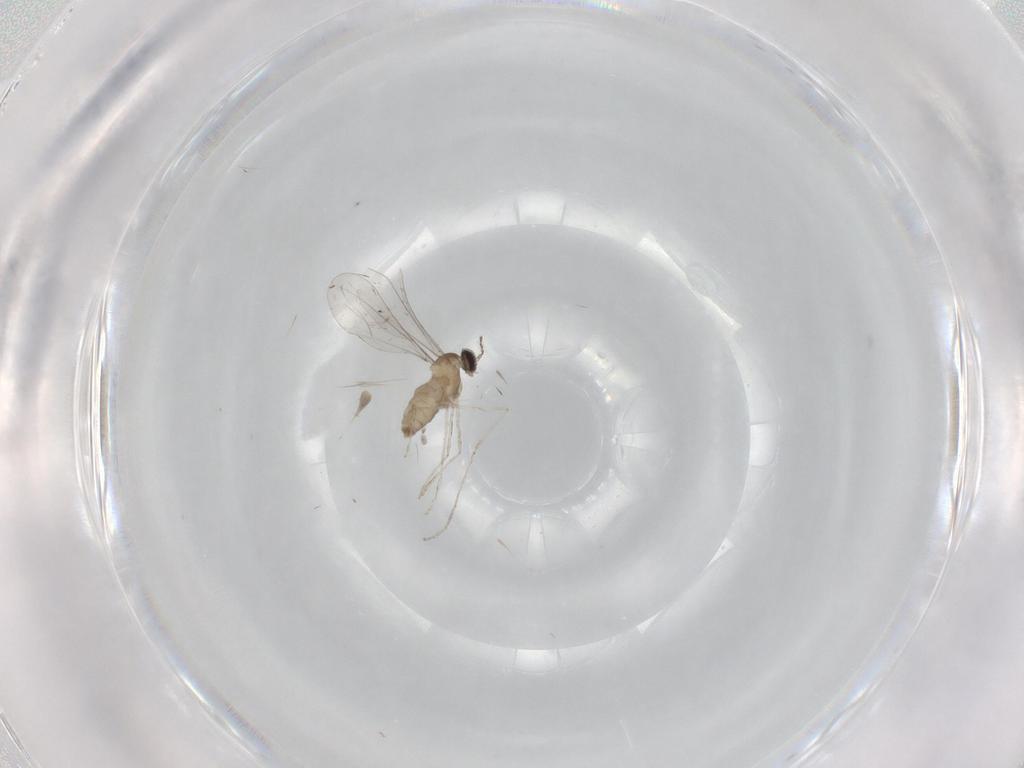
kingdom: Animalia
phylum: Arthropoda
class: Insecta
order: Diptera
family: Cecidomyiidae
